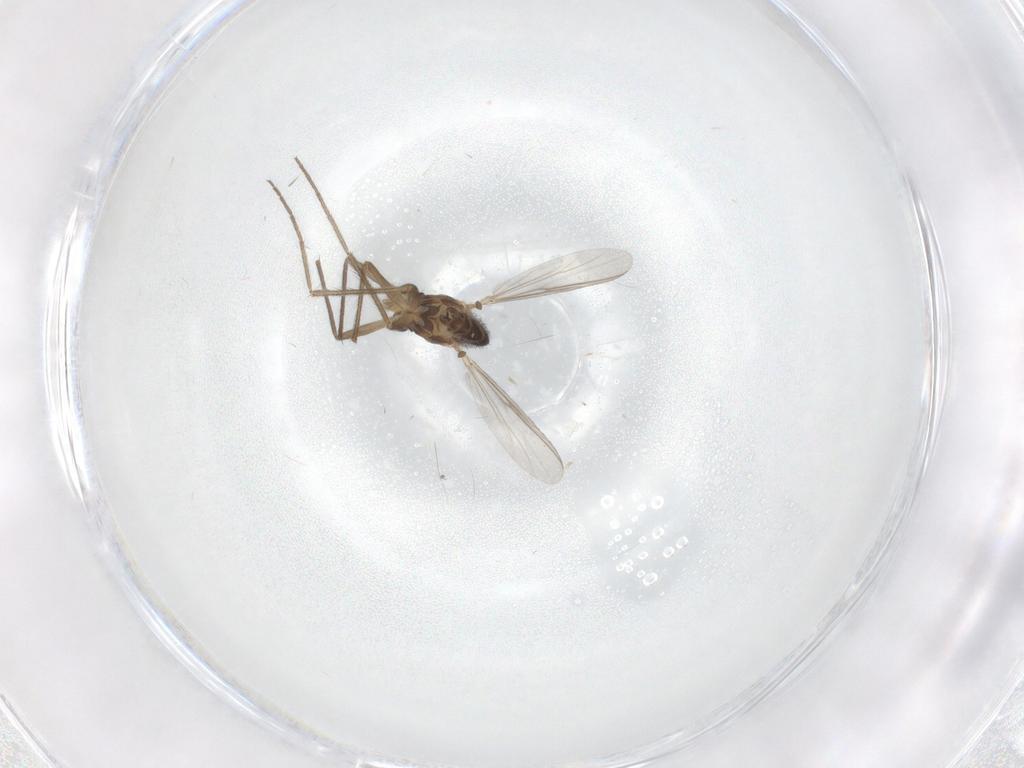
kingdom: Animalia
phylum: Arthropoda
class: Insecta
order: Diptera
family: Chironomidae
